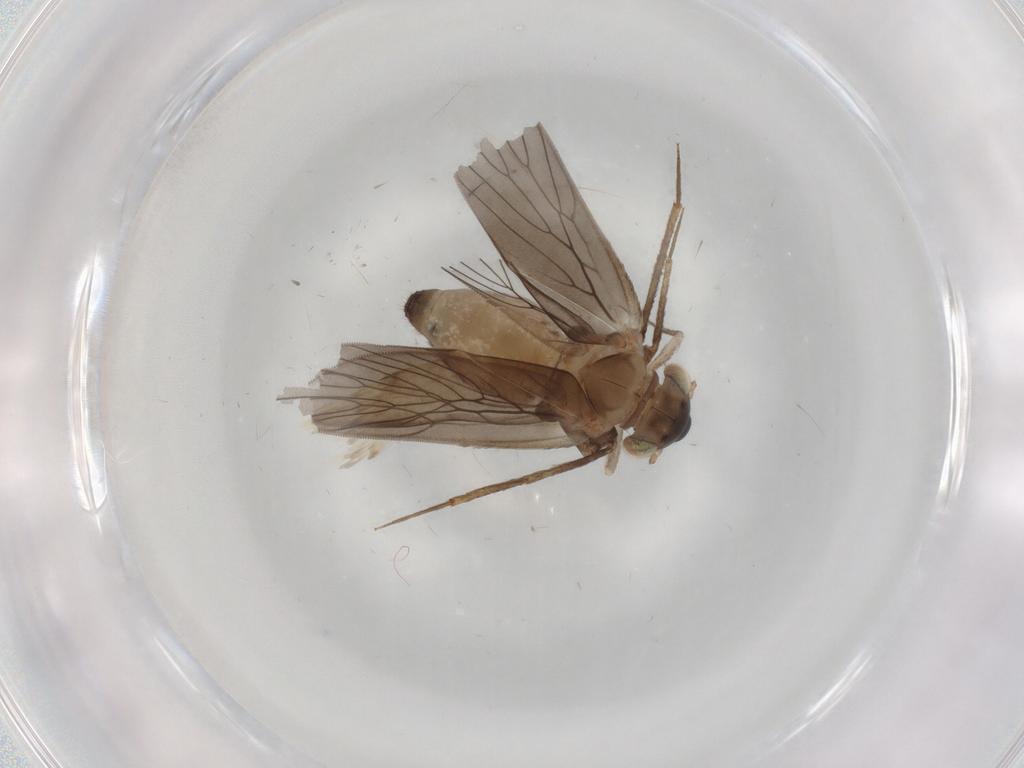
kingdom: Animalia
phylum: Arthropoda
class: Insecta
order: Psocodea
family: Lepidopsocidae
